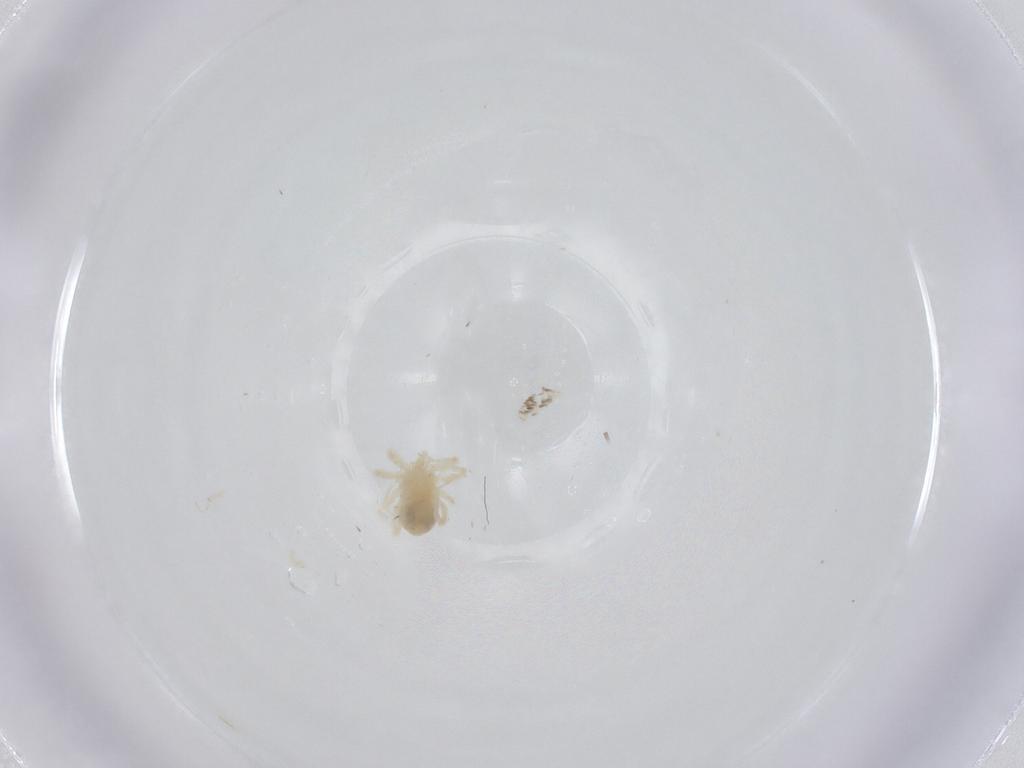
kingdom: Animalia
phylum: Arthropoda
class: Arachnida
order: Trombidiformes
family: Anystidae
